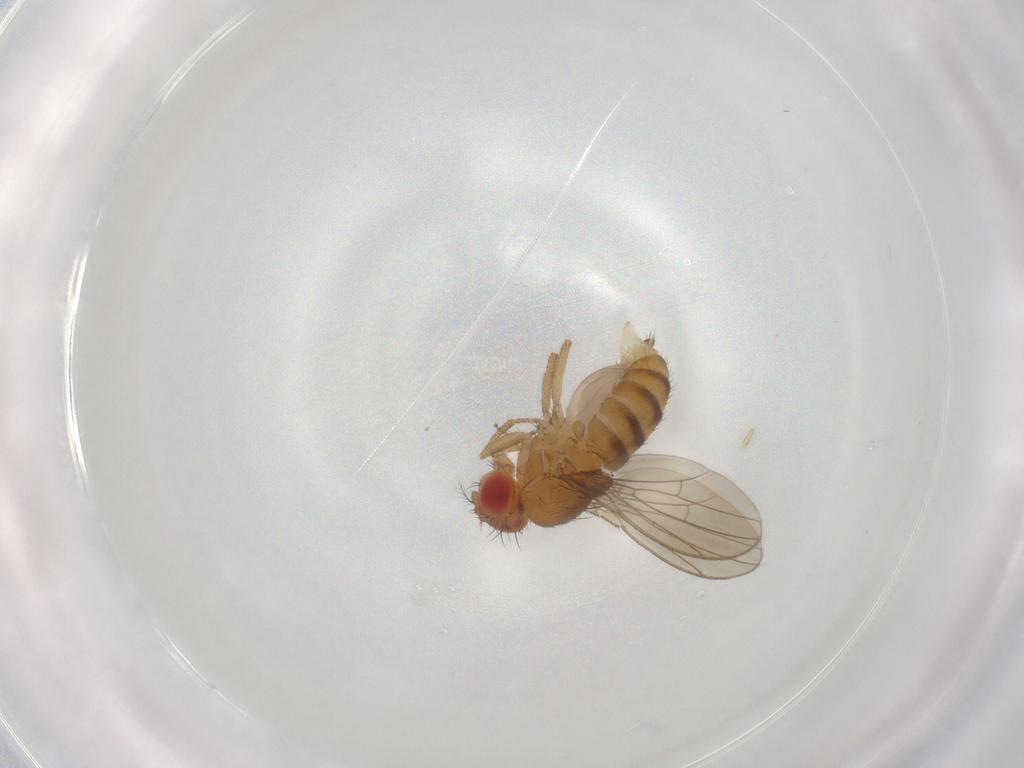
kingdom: Animalia
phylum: Arthropoda
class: Insecta
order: Diptera
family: Drosophilidae
